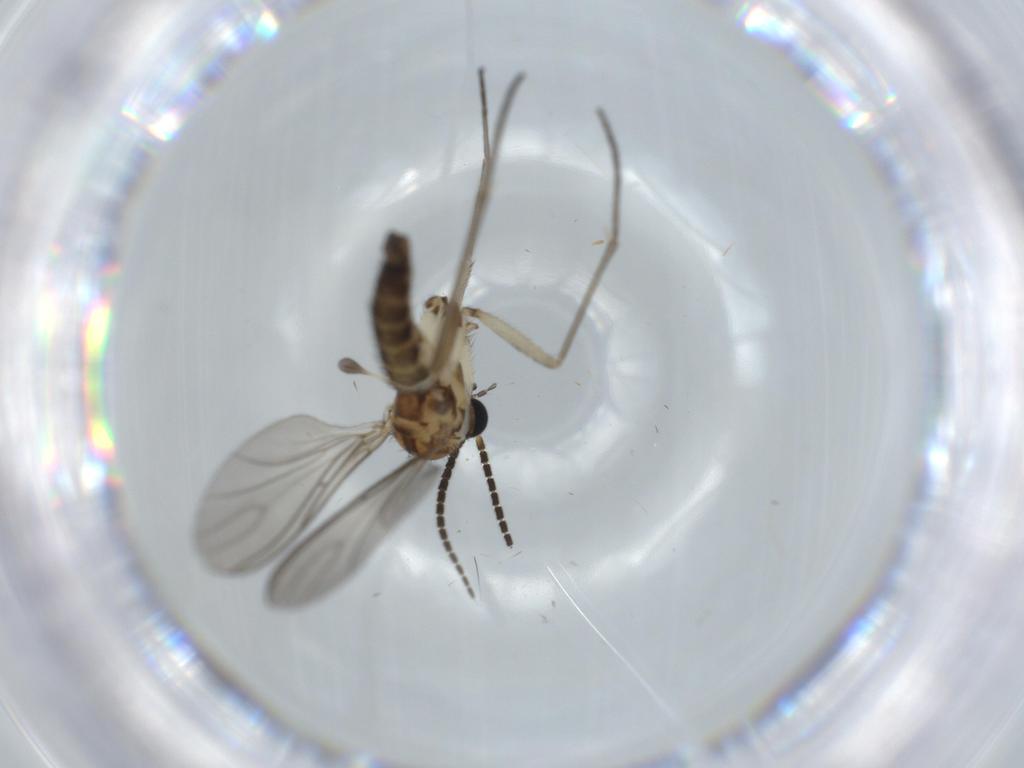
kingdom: Animalia
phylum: Arthropoda
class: Insecta
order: Diptera
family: Sciaridae
